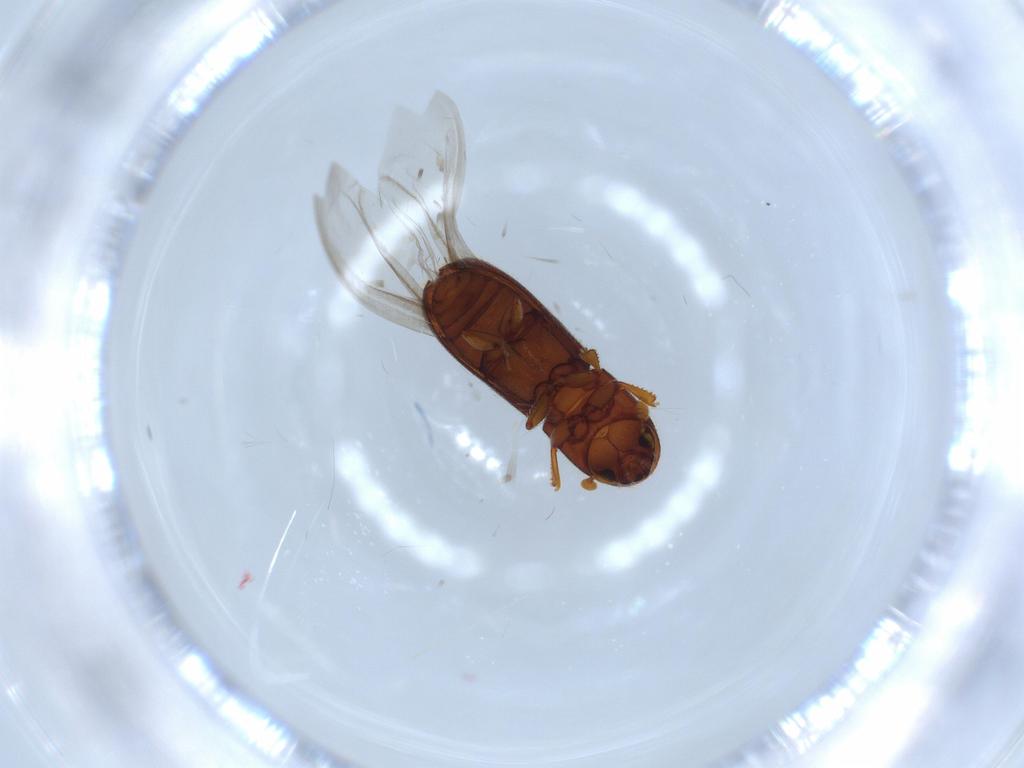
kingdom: Animalia
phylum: Arthropoda
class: Insecta
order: Coleoptera
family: Curculionidae
